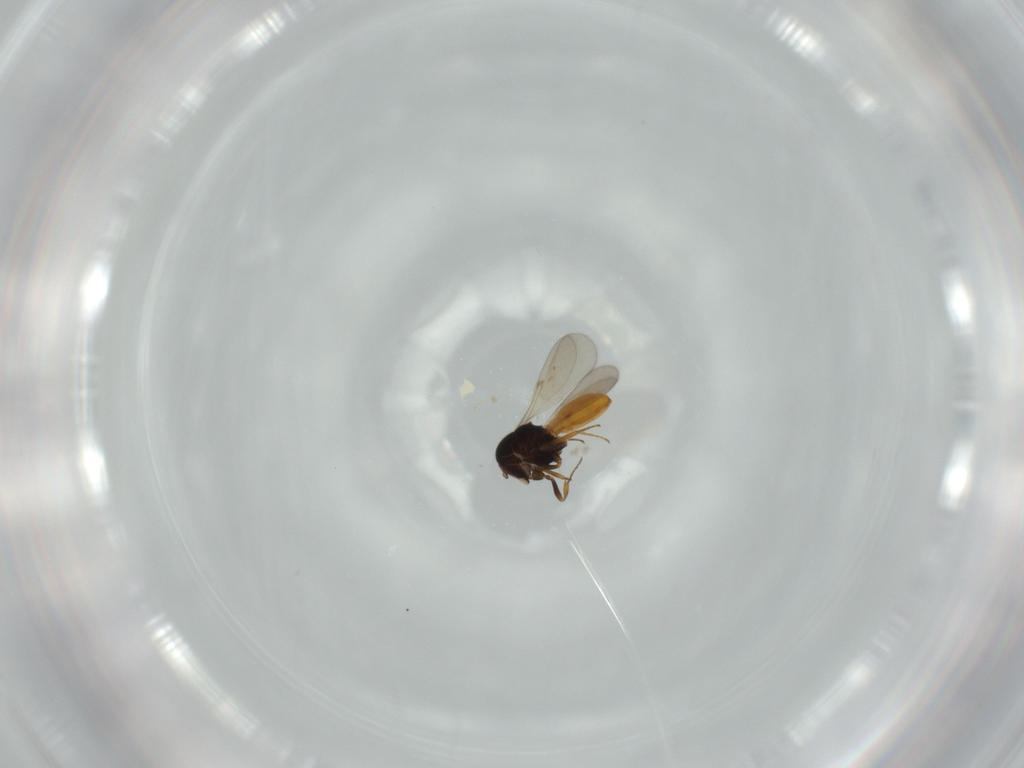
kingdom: Animalia
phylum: Arthropoda
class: Insecta
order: Hymenoptera
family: Scelionidae
